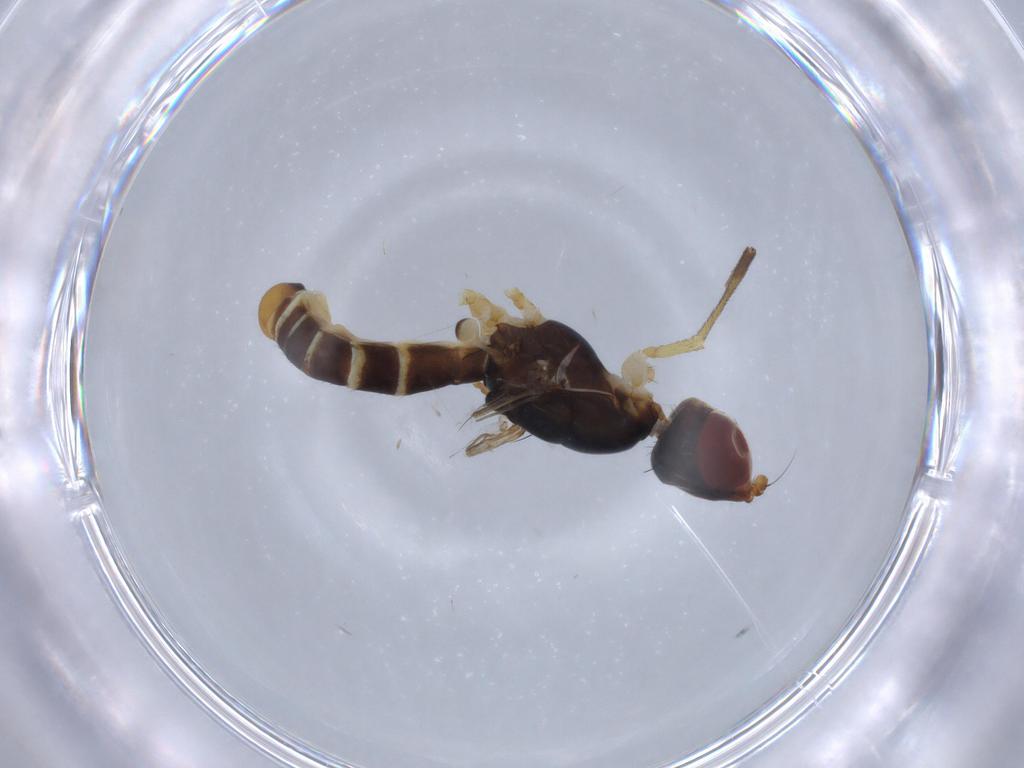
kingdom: Animalia
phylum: Arthropoda
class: Insecta
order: Diptera
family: Micropezidae
